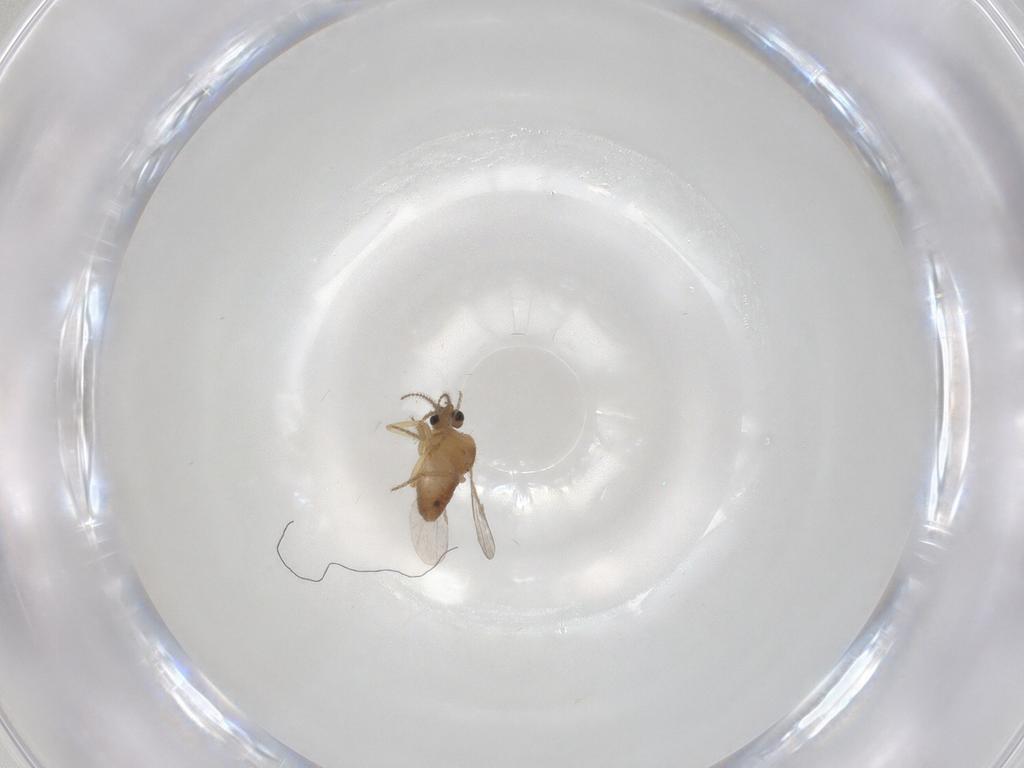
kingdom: Animalia
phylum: Arthropoda
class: Insecta
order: Diptera
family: Ceratopogonidae
